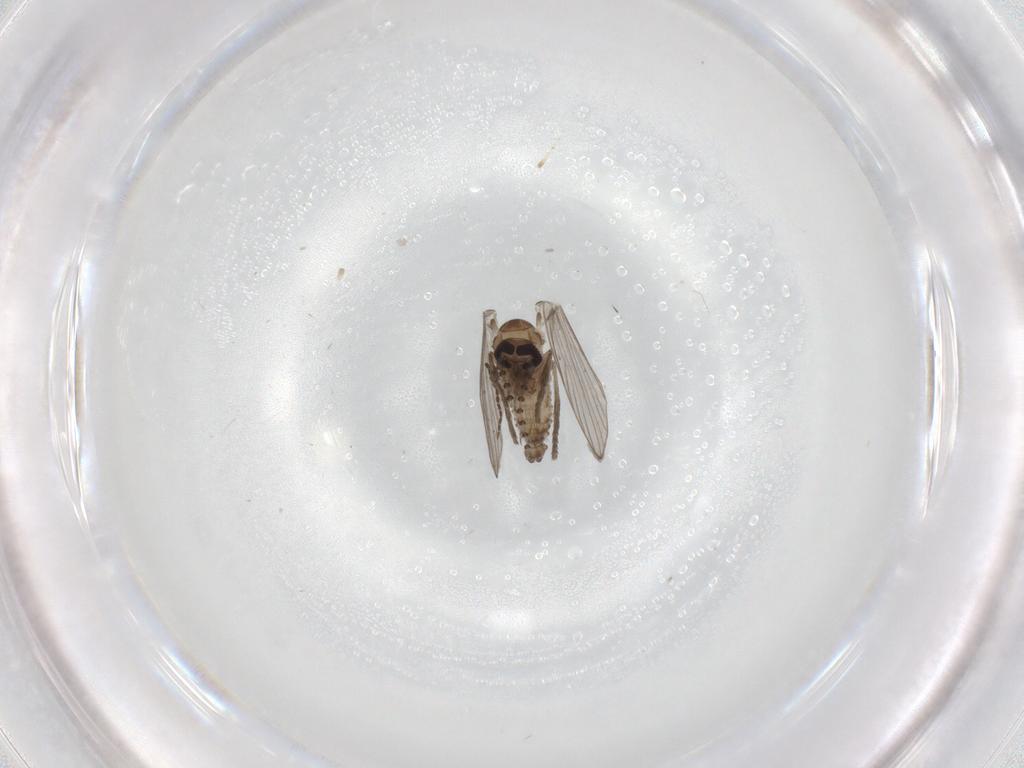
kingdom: Animalia
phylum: Arthropoda
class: Insecta
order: Diptera
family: Psychodidae
